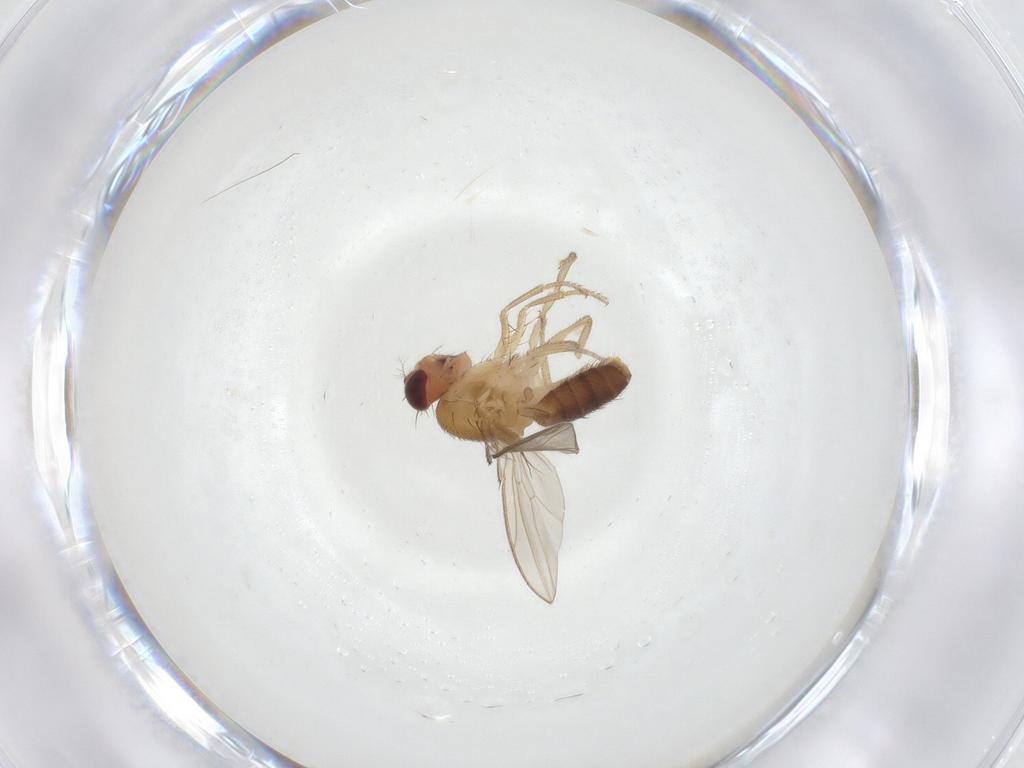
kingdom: Animalia
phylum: Arthropoda
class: Insecta
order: Diptera
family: Drosophilidae
